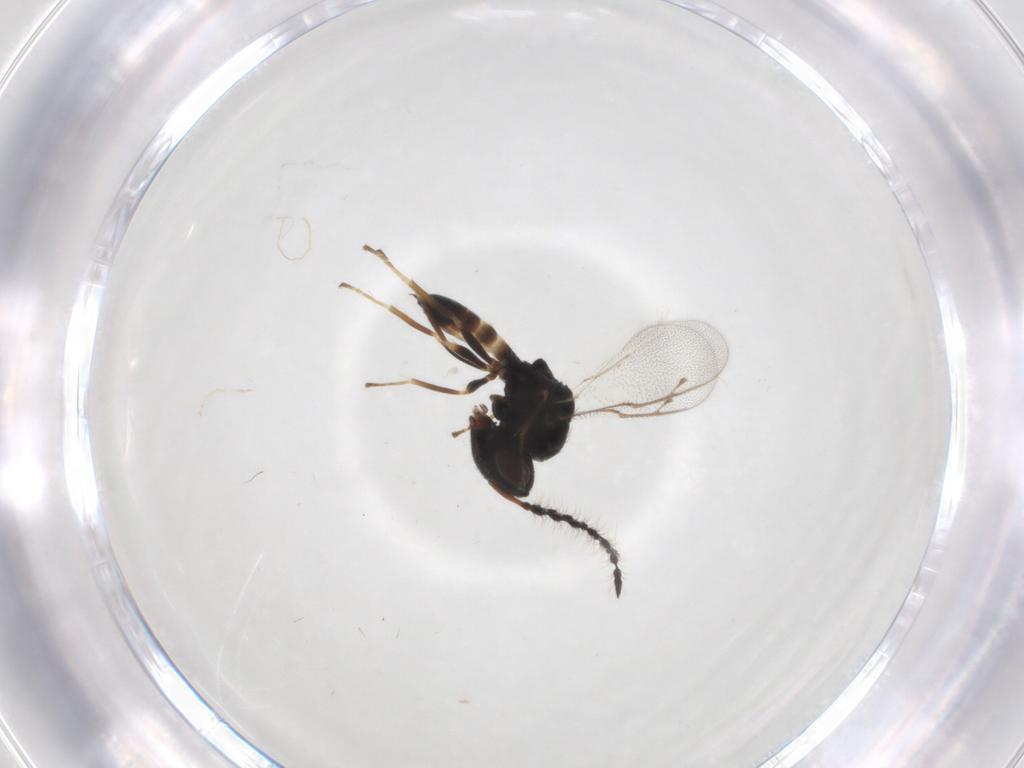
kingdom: Animalia
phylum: Arthropoda
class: Insecta
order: Hymenoptera
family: Pteromalidae
